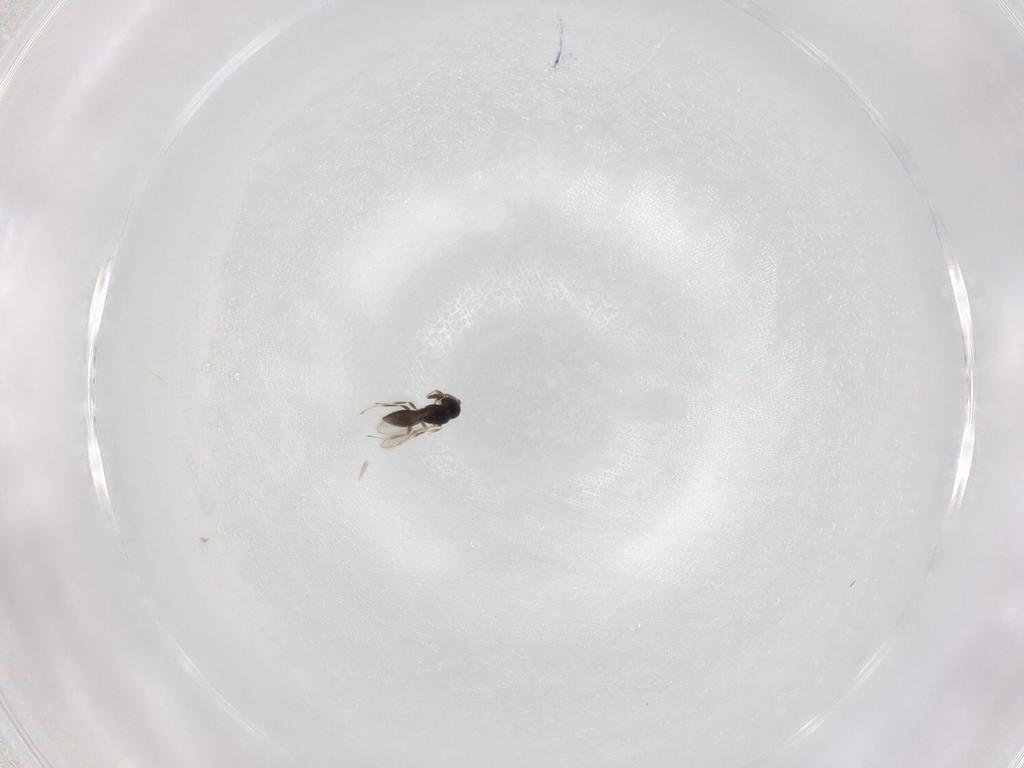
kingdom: Animalia
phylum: Arthropoda
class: Insecta
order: Hymenoptera
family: Scelionidae
